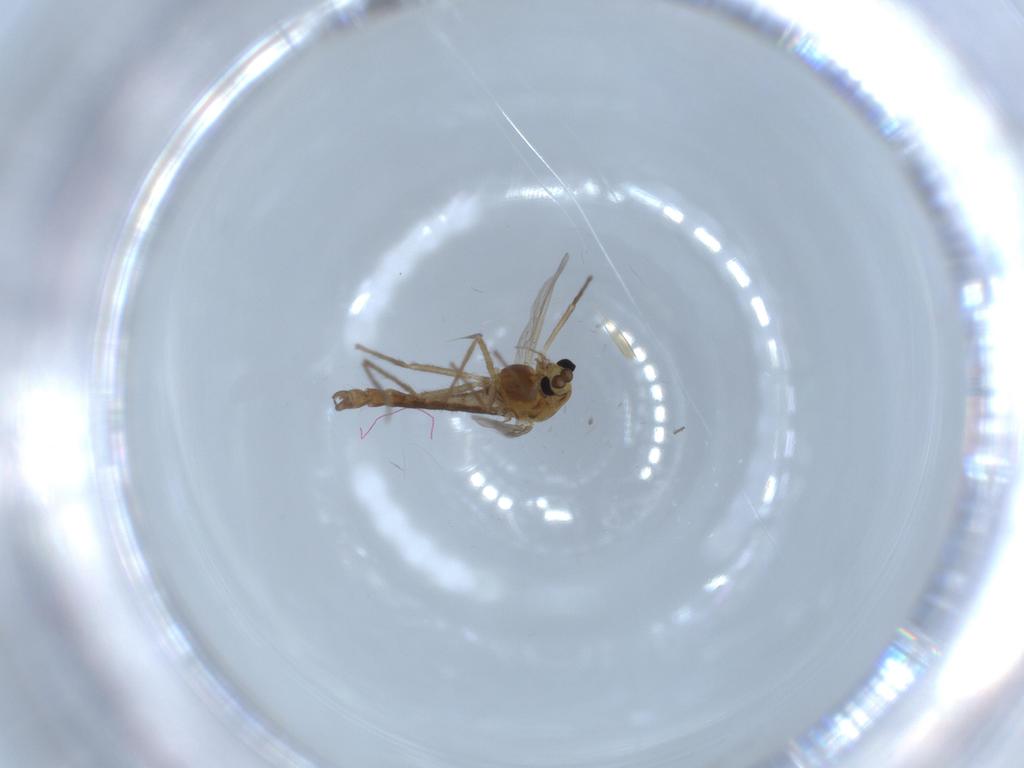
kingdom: Animalia
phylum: Arthropoda
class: Insecta
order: Diptera
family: Chironomidae
